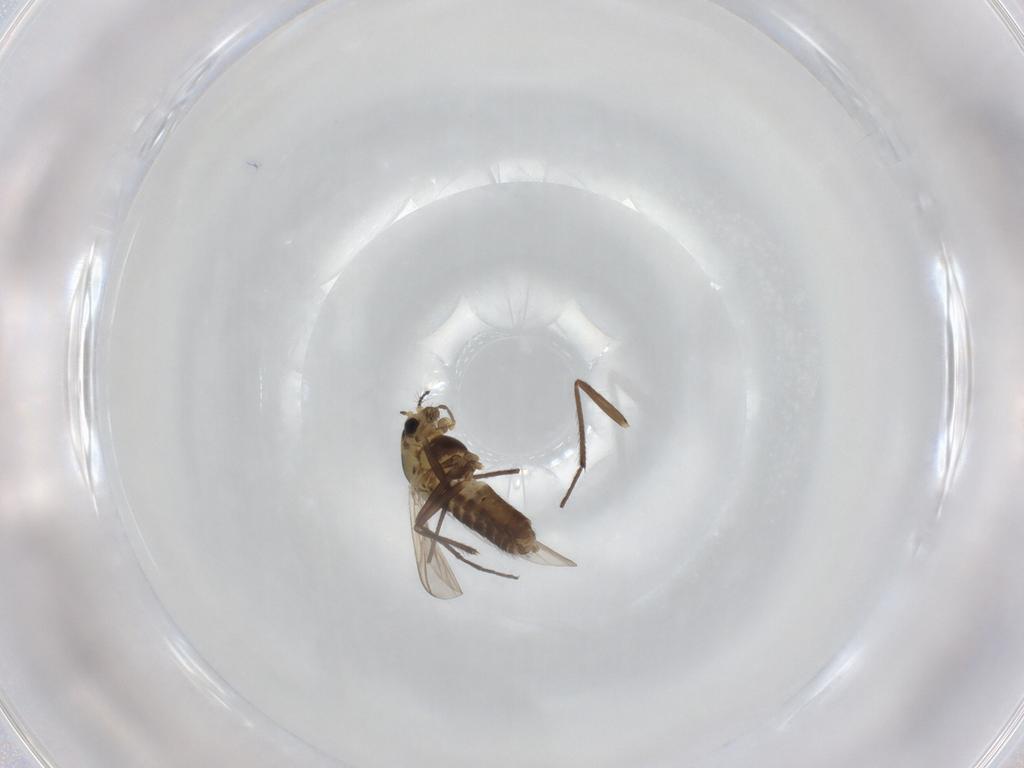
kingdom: Animalia
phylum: Arthropoda
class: Insecta
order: Diptera
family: Chironomidae
